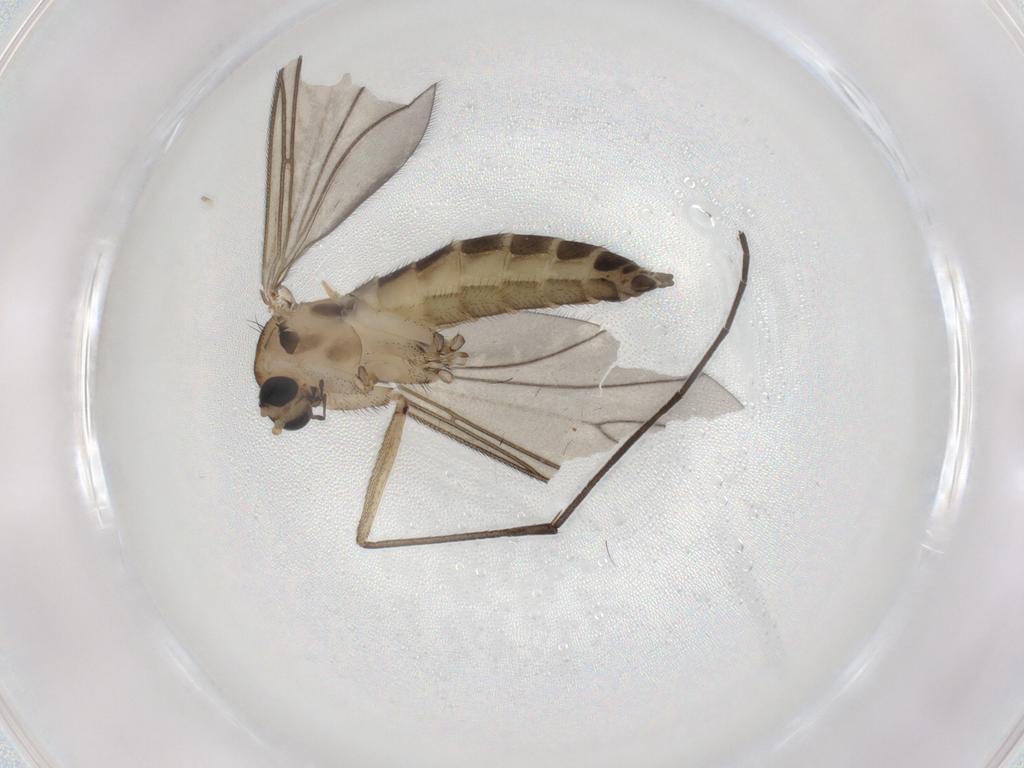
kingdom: Animalia
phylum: Arthropoda
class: Insecta
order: Diptera
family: Sciaridae
